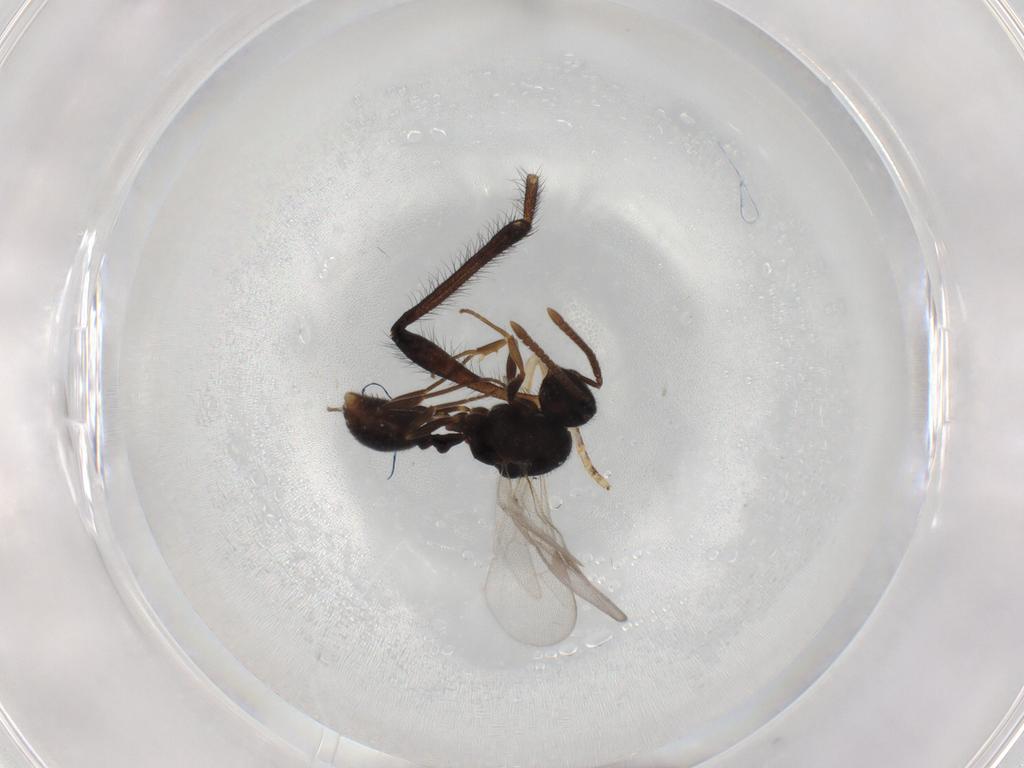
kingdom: Animalia
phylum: Arthropoda
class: Insecta
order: Hymenoptera
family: Formicidae
